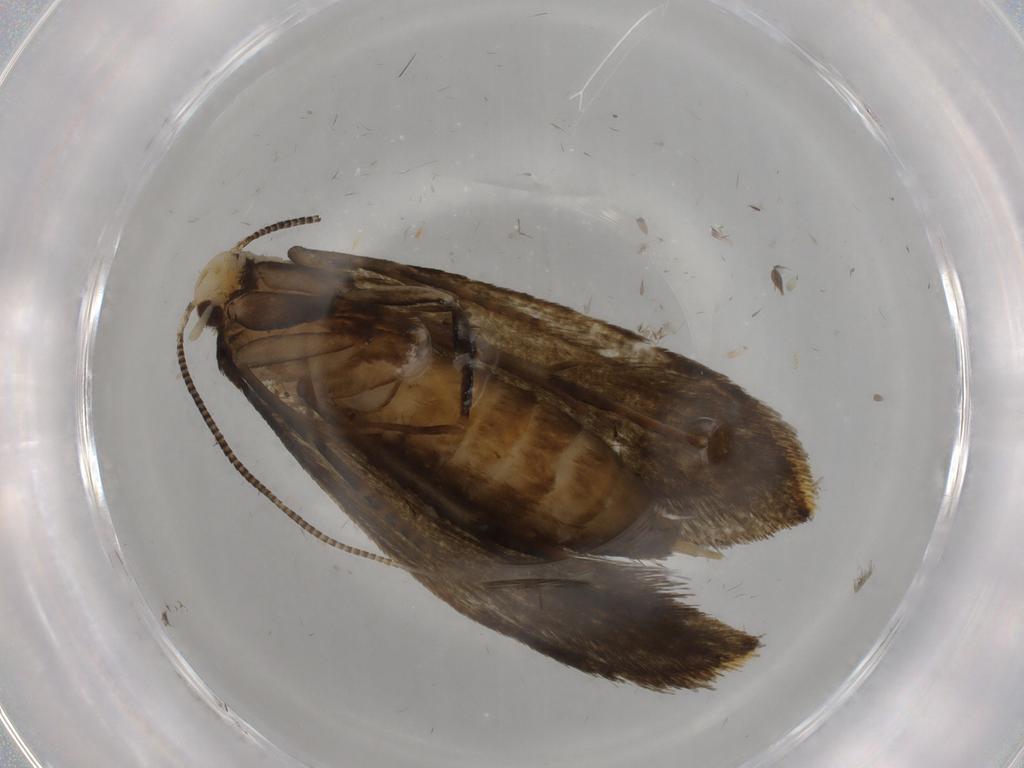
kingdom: Animalia
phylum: Arthropoda
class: Insecta
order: Lepidoptera
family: Pieridae
